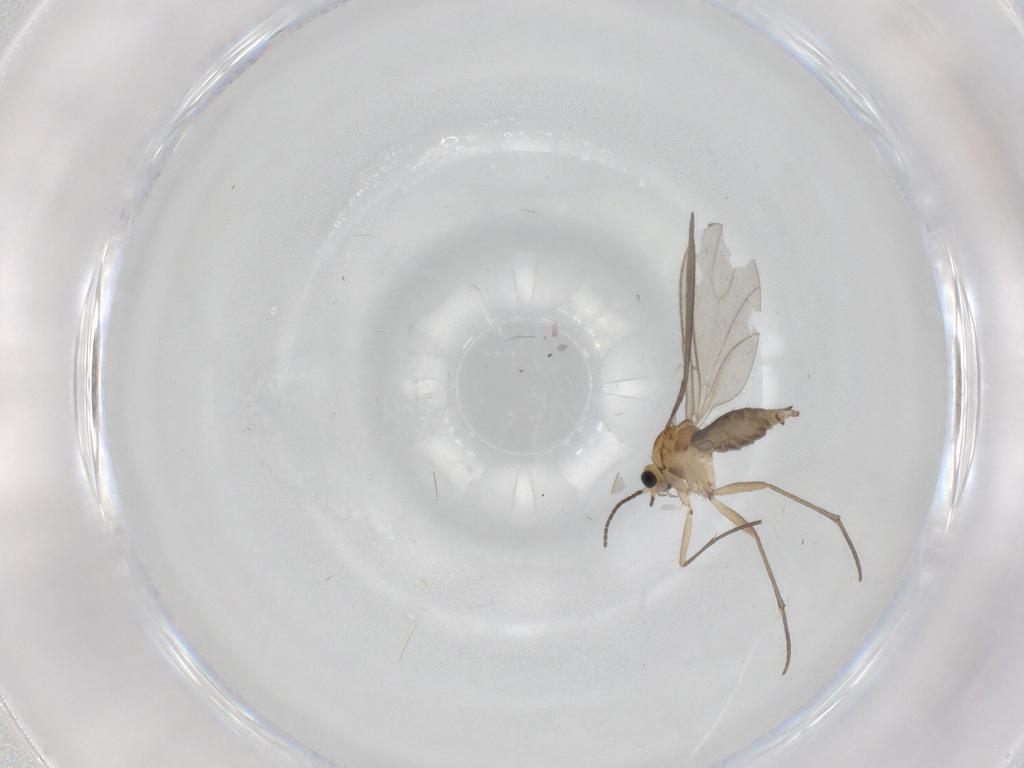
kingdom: Animalia
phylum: Arthropoda
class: Insecta
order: Diptera
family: Sciaridae
